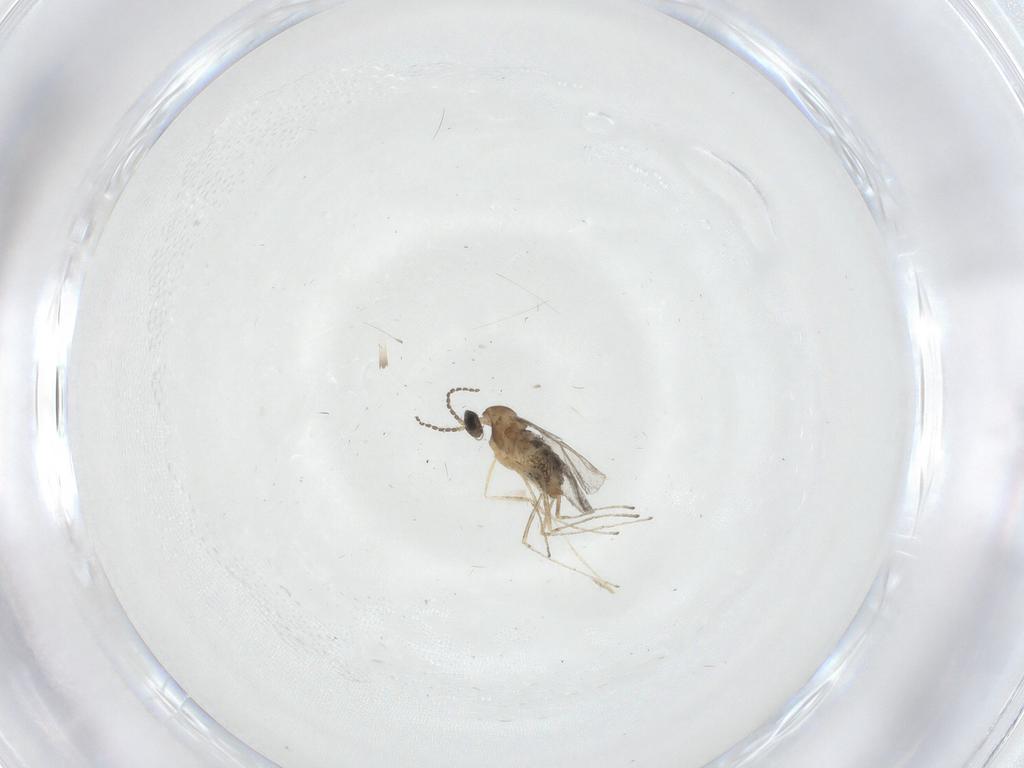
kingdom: Animalia
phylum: Arthropoda
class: Insecta
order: Diptera
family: Cecidomyiidae
